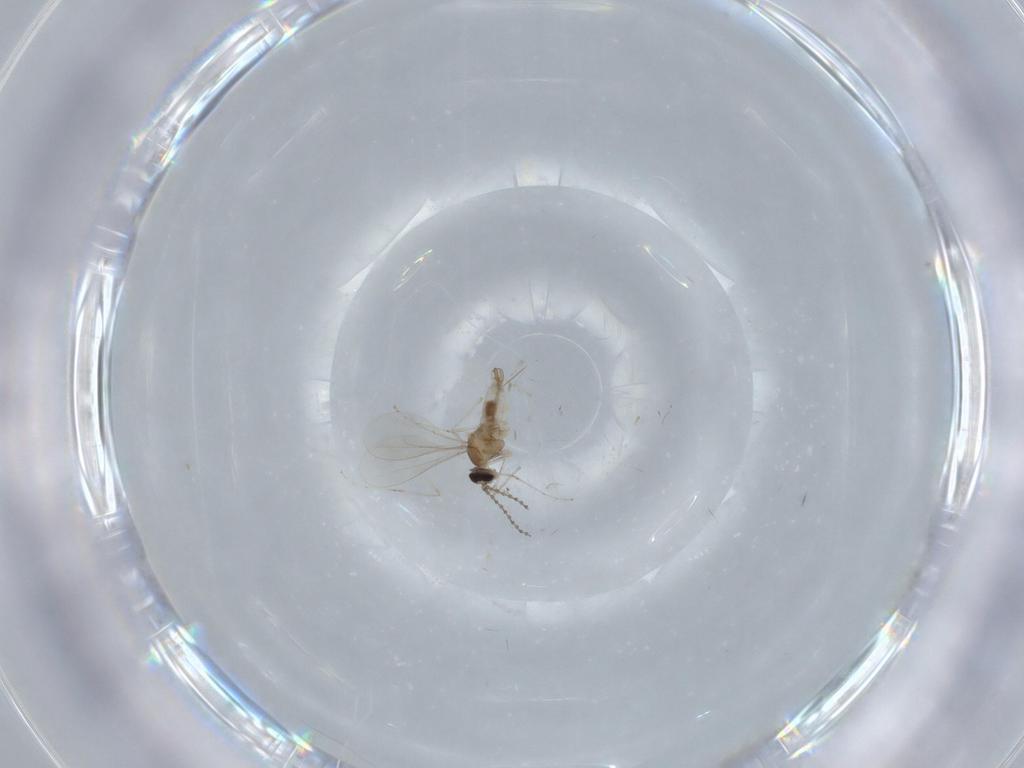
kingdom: Animalia
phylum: Arthropoda
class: Insecta
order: Diptera
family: Cecidomyiidae
